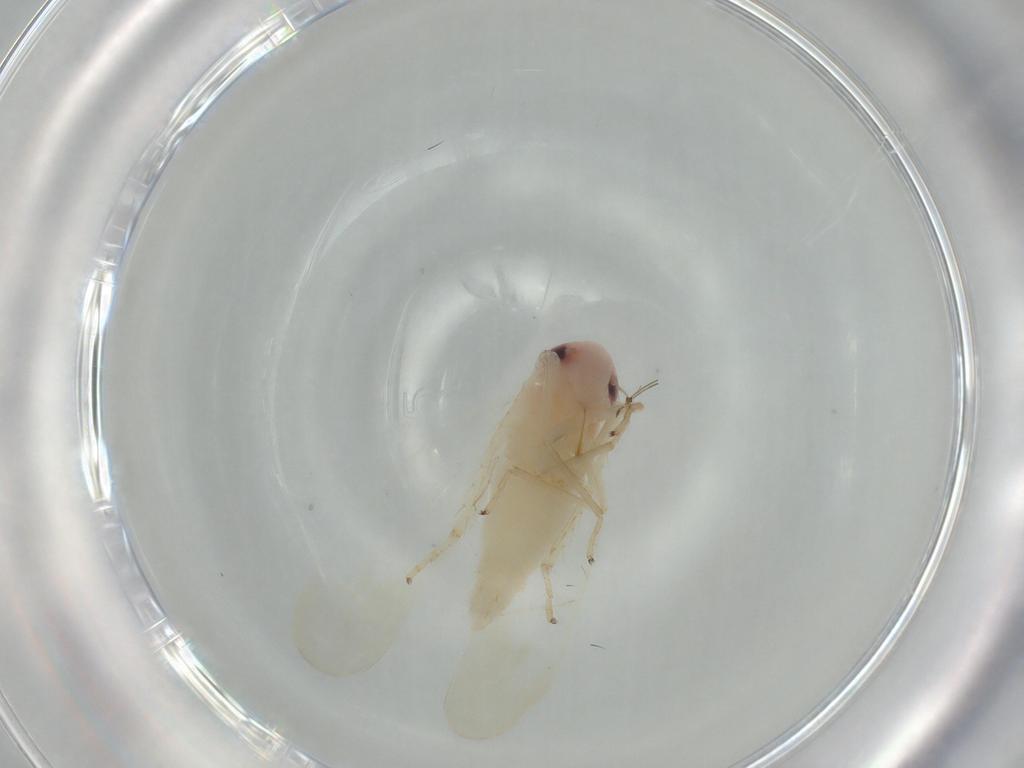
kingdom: Animalia
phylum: Arthropoda
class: Insecta
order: Hemiptera
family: Cicadellidae
